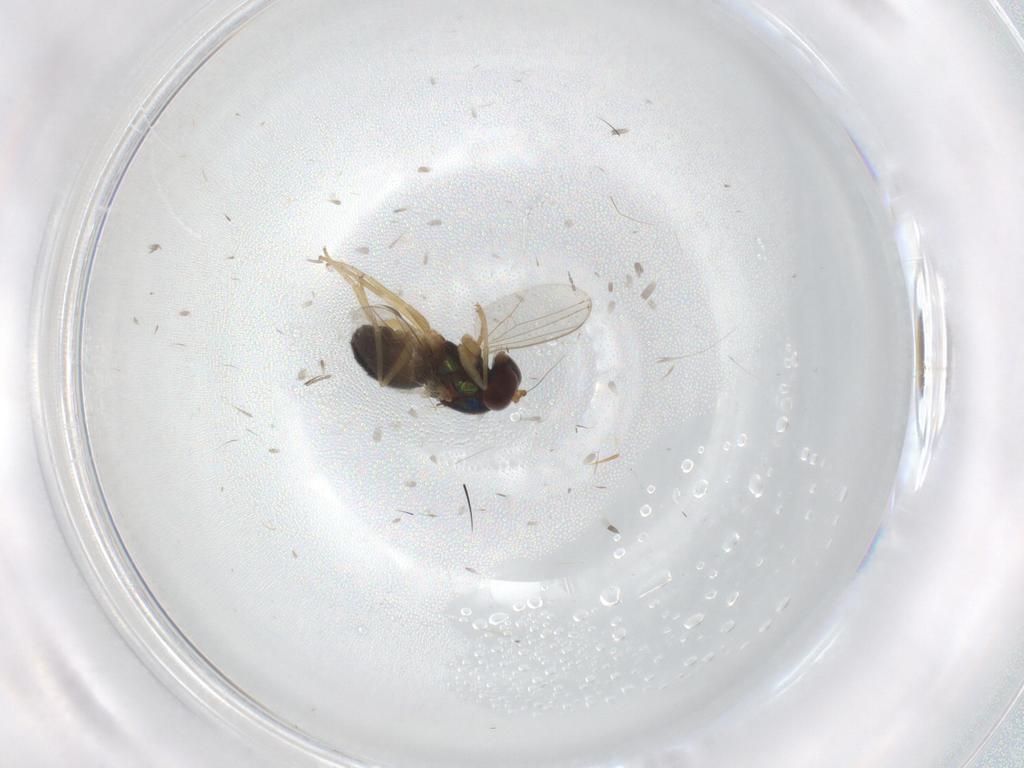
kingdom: Animalia
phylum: Arthropoda
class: Insecta
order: Diptera
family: Dolichopodidae
